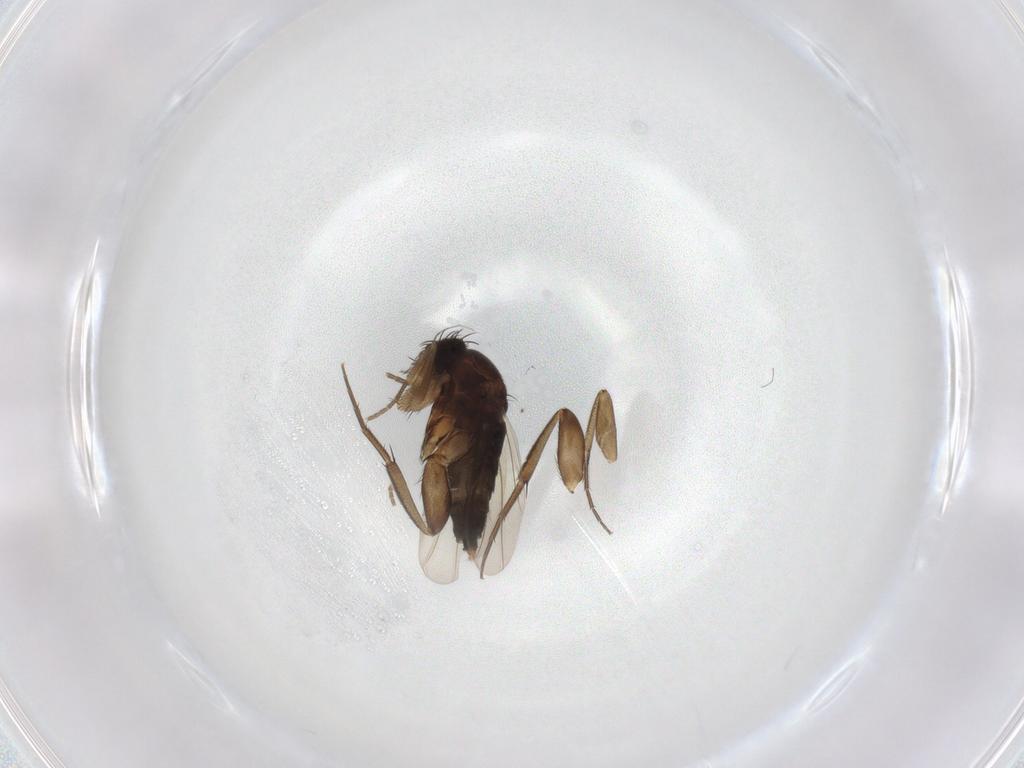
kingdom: Animalia
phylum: Arthropoda
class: Insecta
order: Diptera
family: Phoridae
